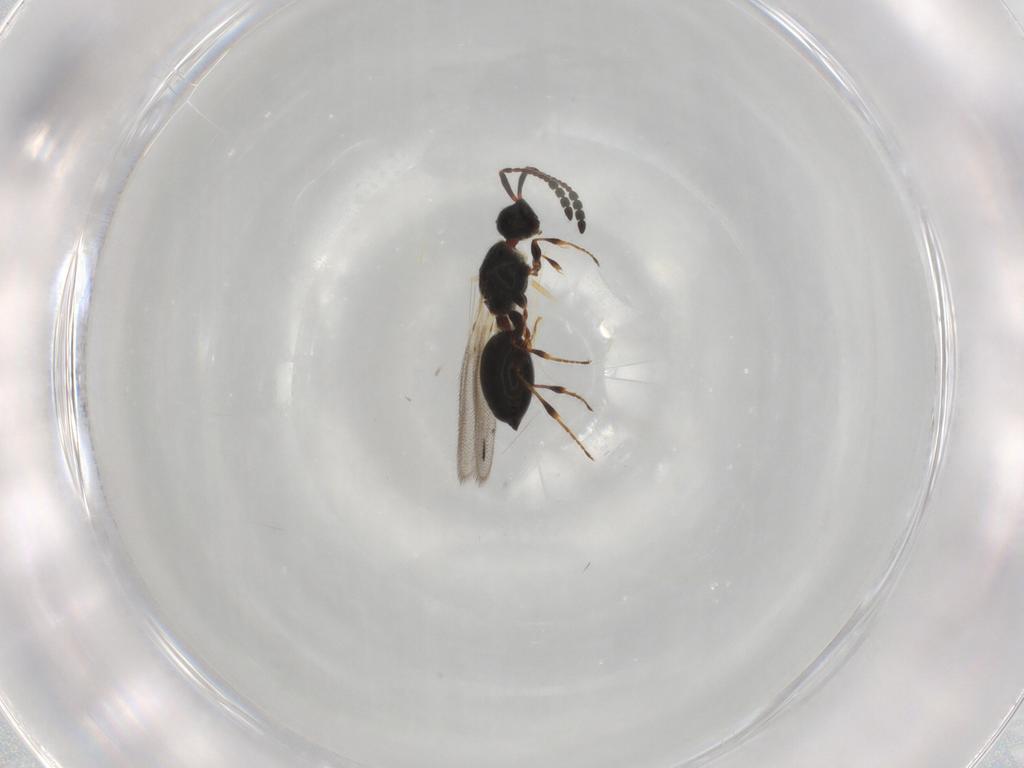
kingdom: Animalia
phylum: Arthropoda
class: Insecta
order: Hymenoptera
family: Diapriidae
